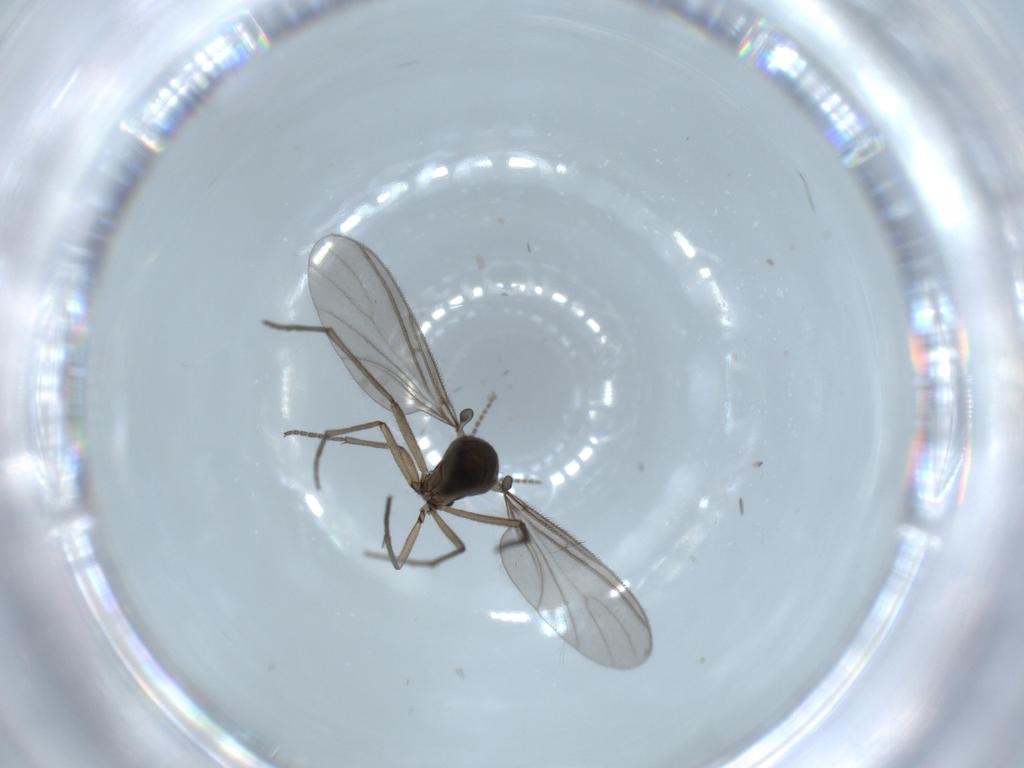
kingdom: Animalia
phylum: Arthropoda
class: Insecta
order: Diptera
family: Sciaridae
